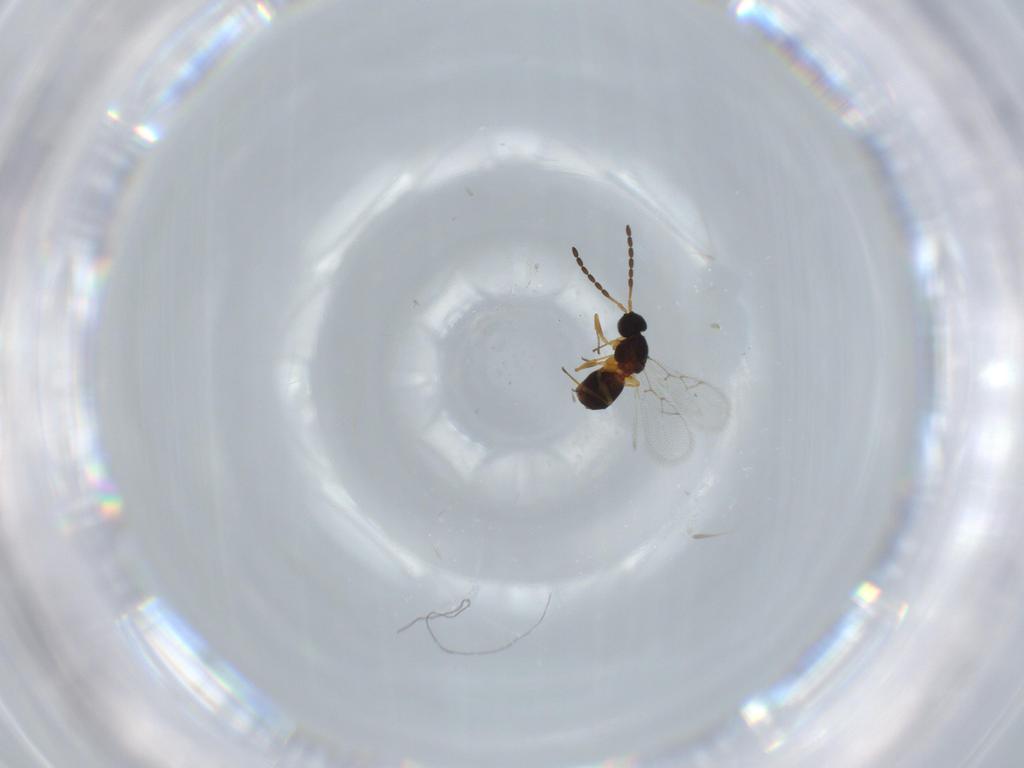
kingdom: Animalia
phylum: Arthropoda
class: Insecta
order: Hymenoptera
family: Figitidae
